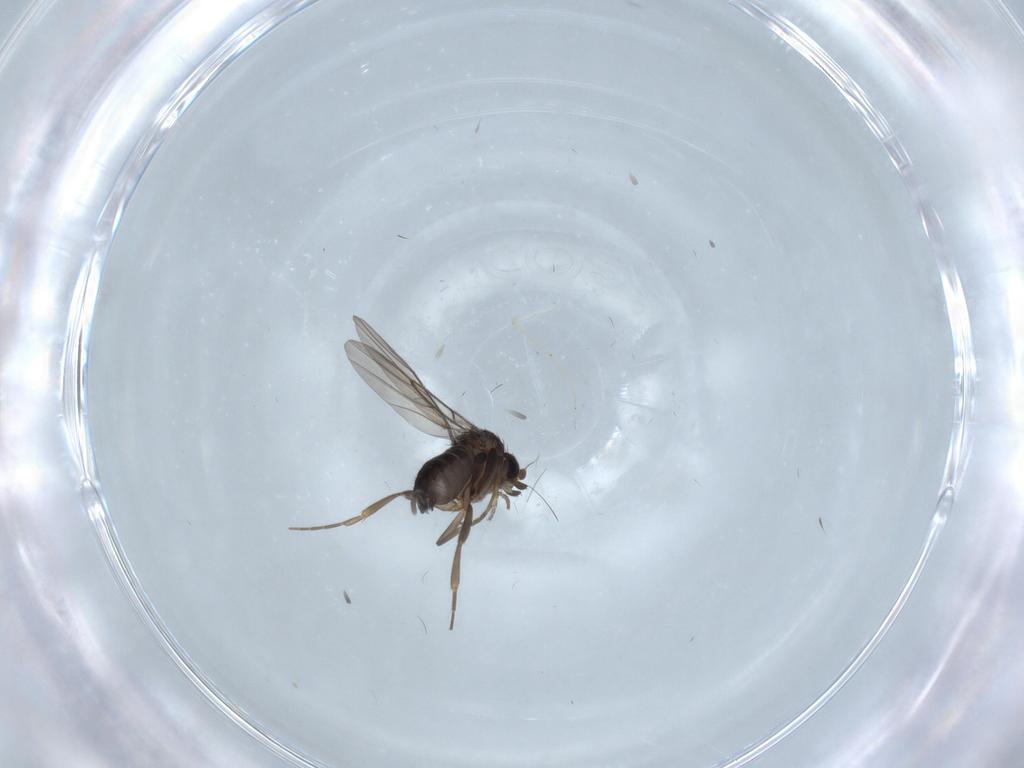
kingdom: Animalia
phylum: Arthropoda
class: Insecta
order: Diptera
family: Phoridae
